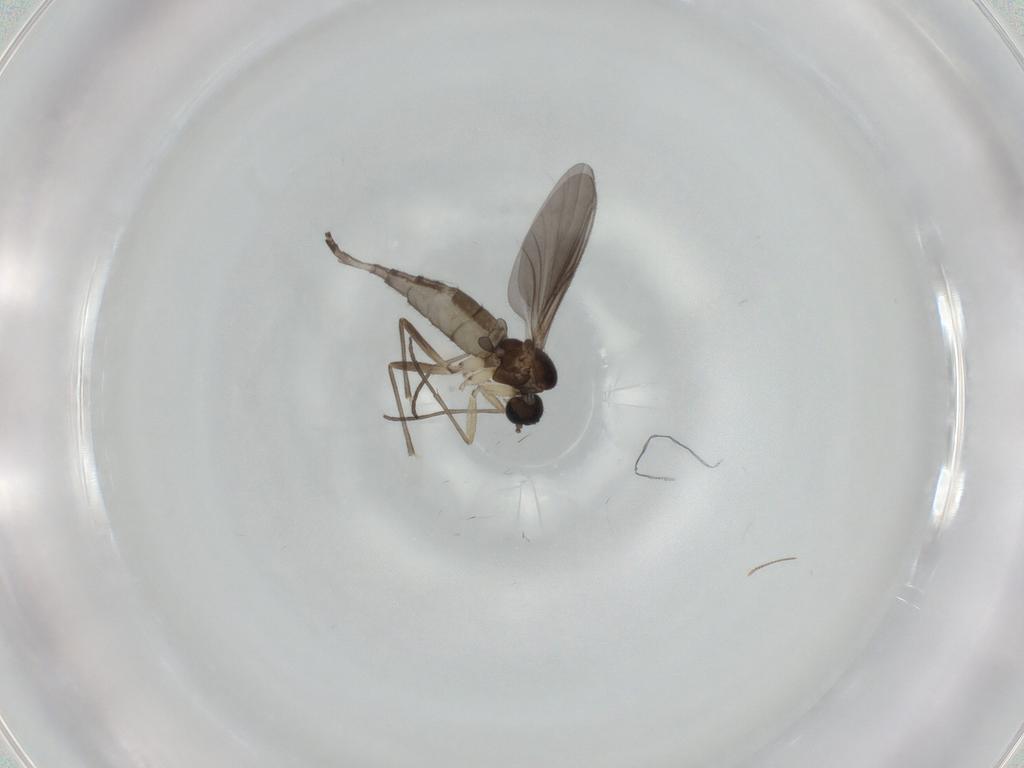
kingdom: Animalia
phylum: Arthropoda
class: Insecta
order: Diptera
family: Sciaridae
